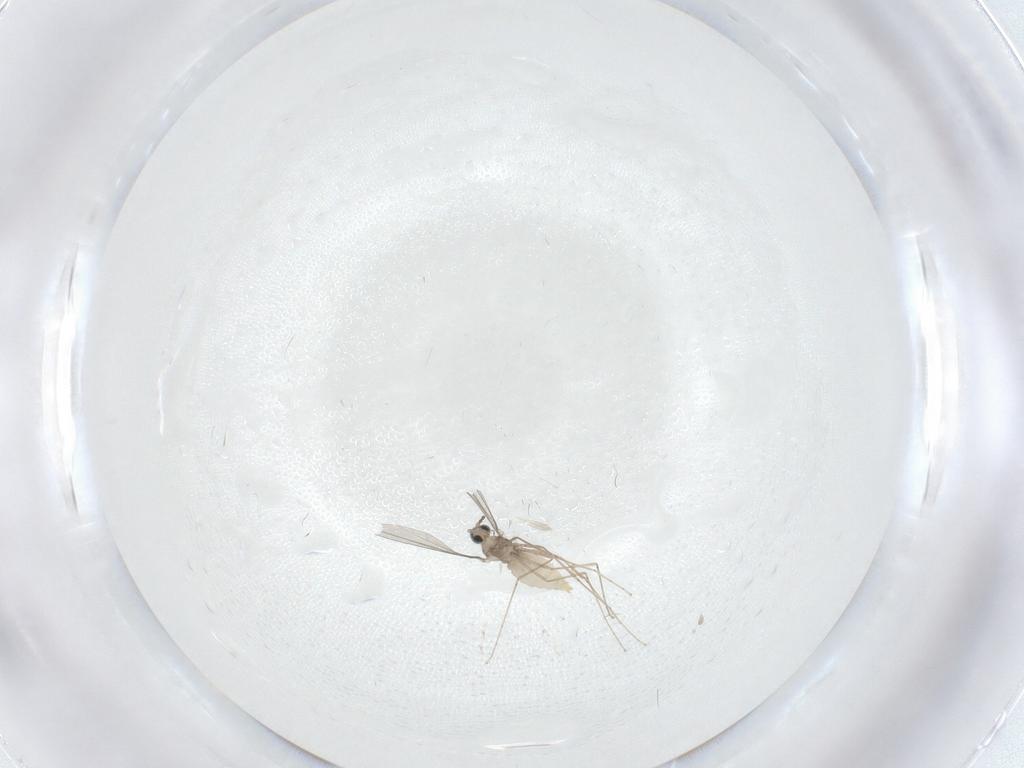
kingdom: Animalia
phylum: Arthropoda
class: Insecta
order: Diptera
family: Cecidomyiidae
